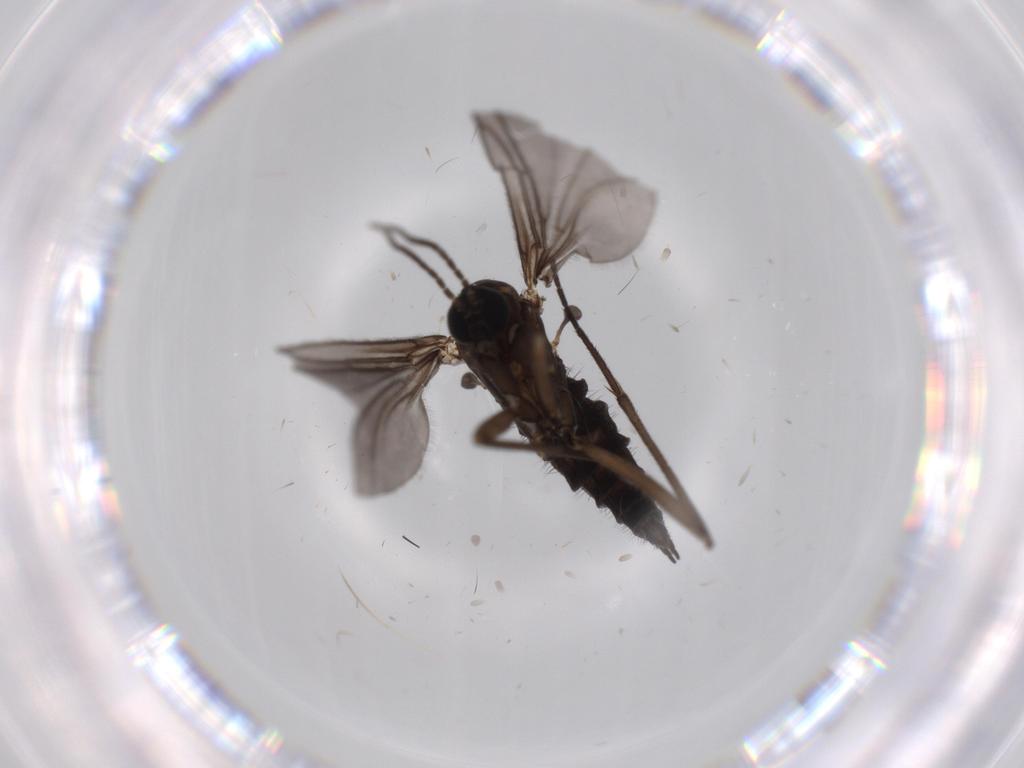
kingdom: Animalia
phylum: Arthropoda
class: Insecta
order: Diptera
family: Sciaridae
